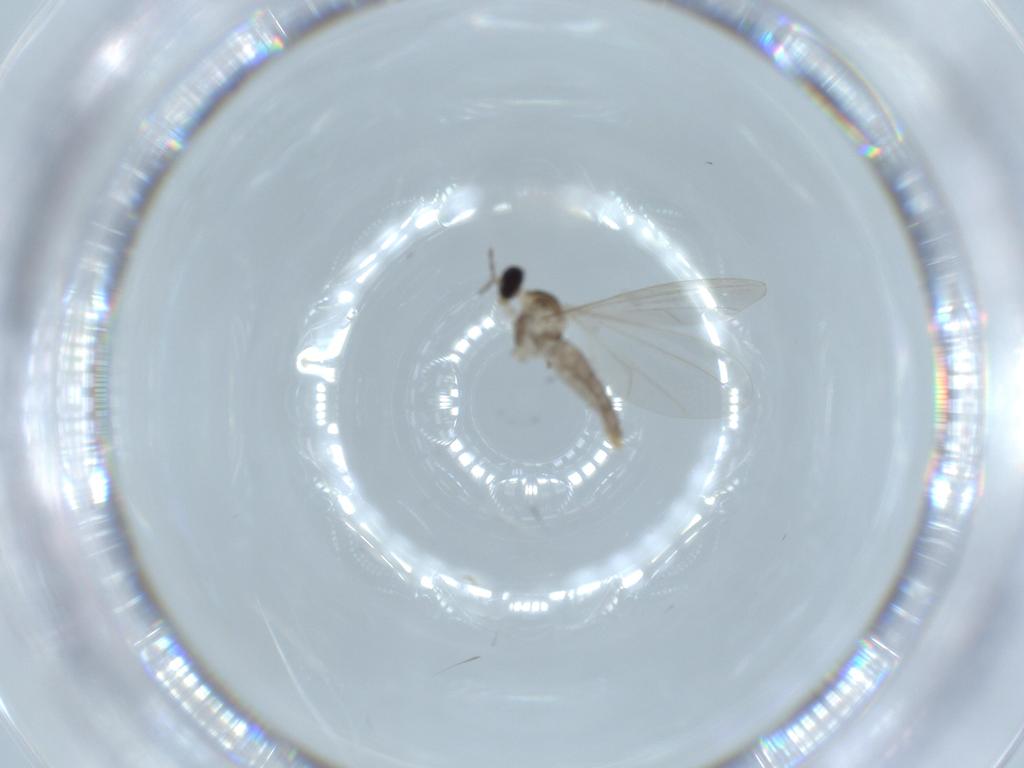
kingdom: Animalia
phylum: Arthropoda
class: Insecta
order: Diptera
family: Cecidomyiidae
